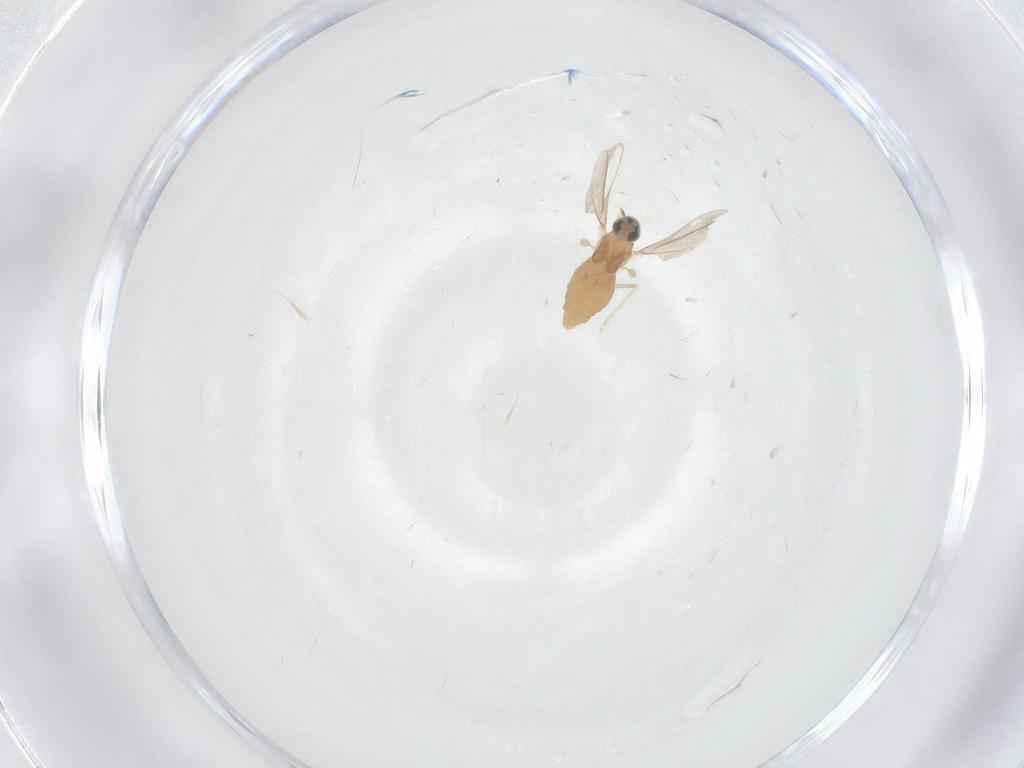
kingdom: Animalia
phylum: Arthropoda
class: Insecta
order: Diptera
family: Cecidomyiidae
